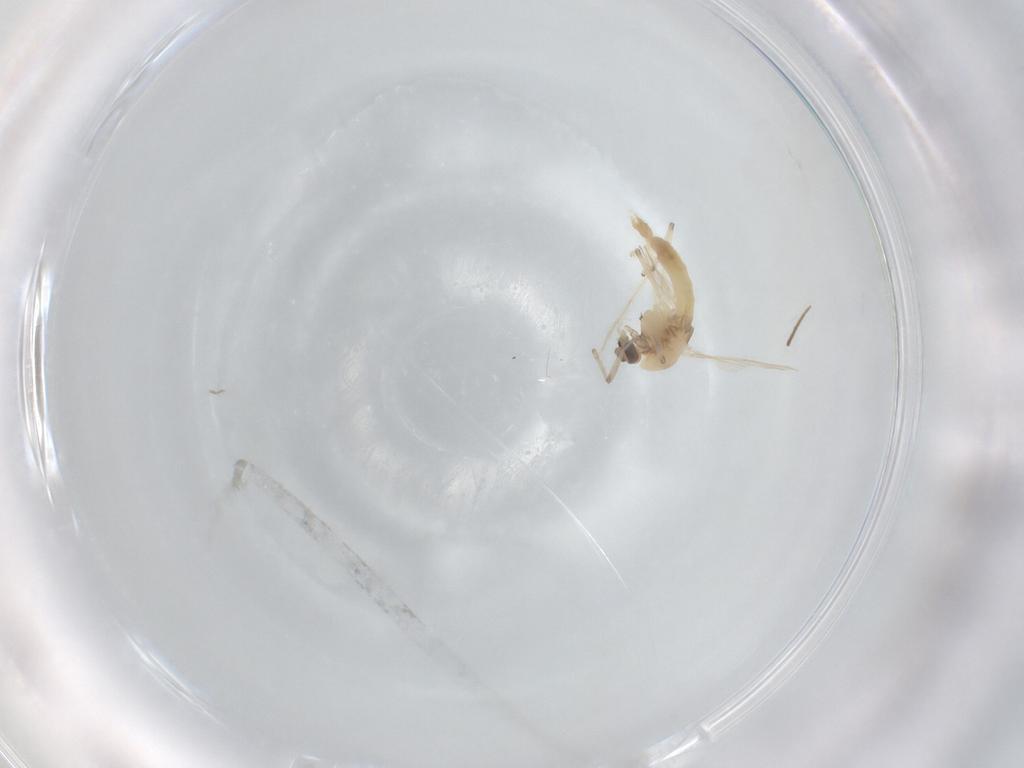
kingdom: Animalia
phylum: Arthropoda
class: Insecta
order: Diptera
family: Chironomidae
